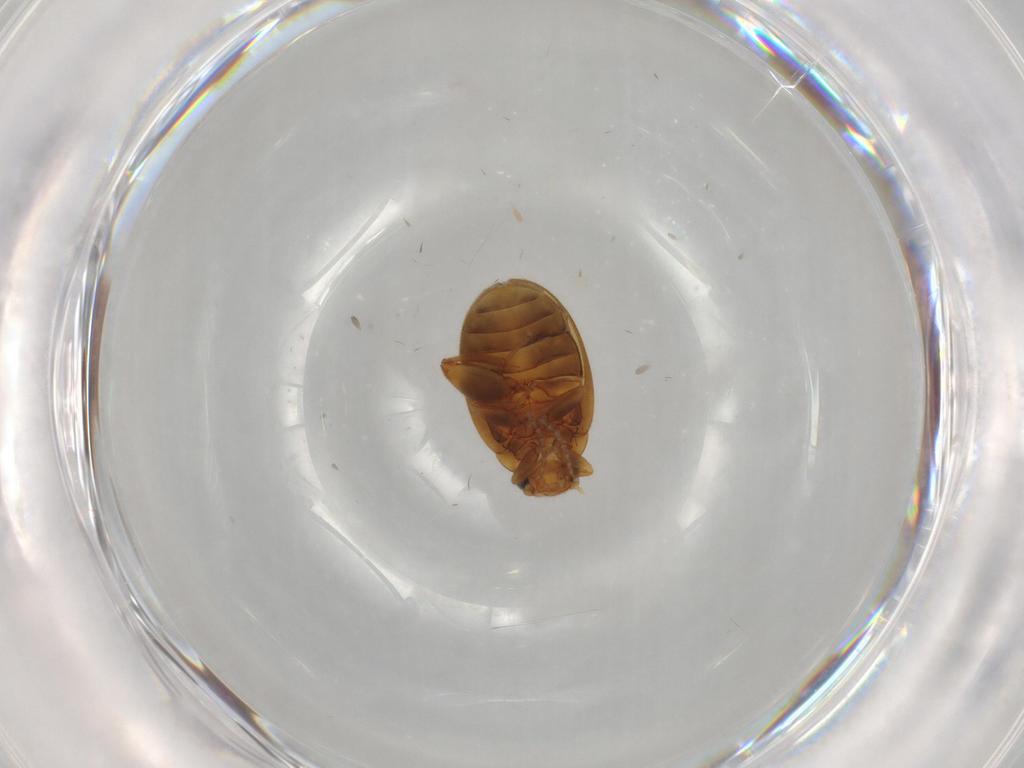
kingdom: Animalia
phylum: Arthropoda
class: Insecta
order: Coleoptera
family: Scirtidae
